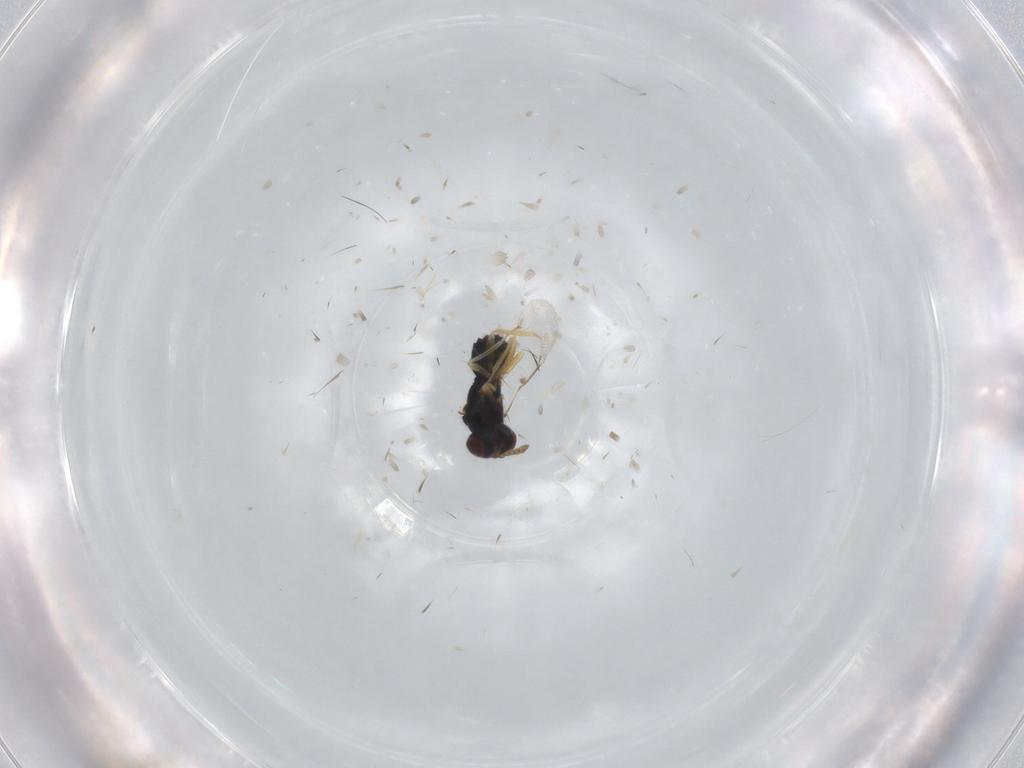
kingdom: Animalia
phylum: Arthropoda
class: Insecta
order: Hymenoptera
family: Eulophidae
